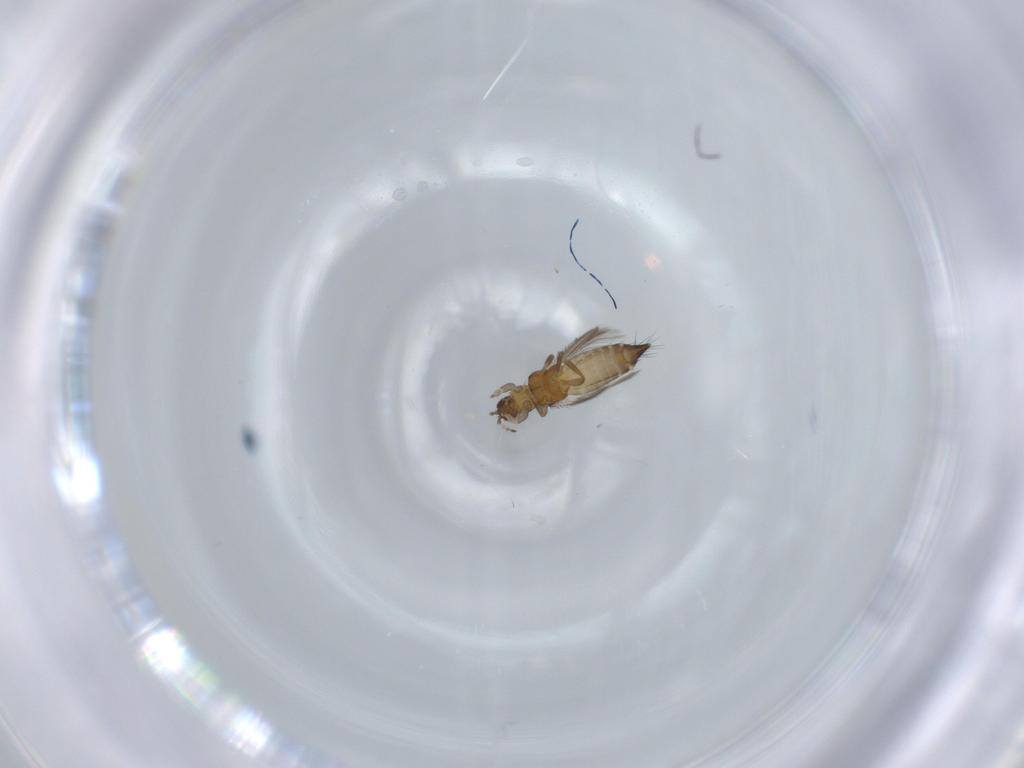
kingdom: Animalia
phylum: Arthropoda
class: Insecta
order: Thysanoptera
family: Thripidae
